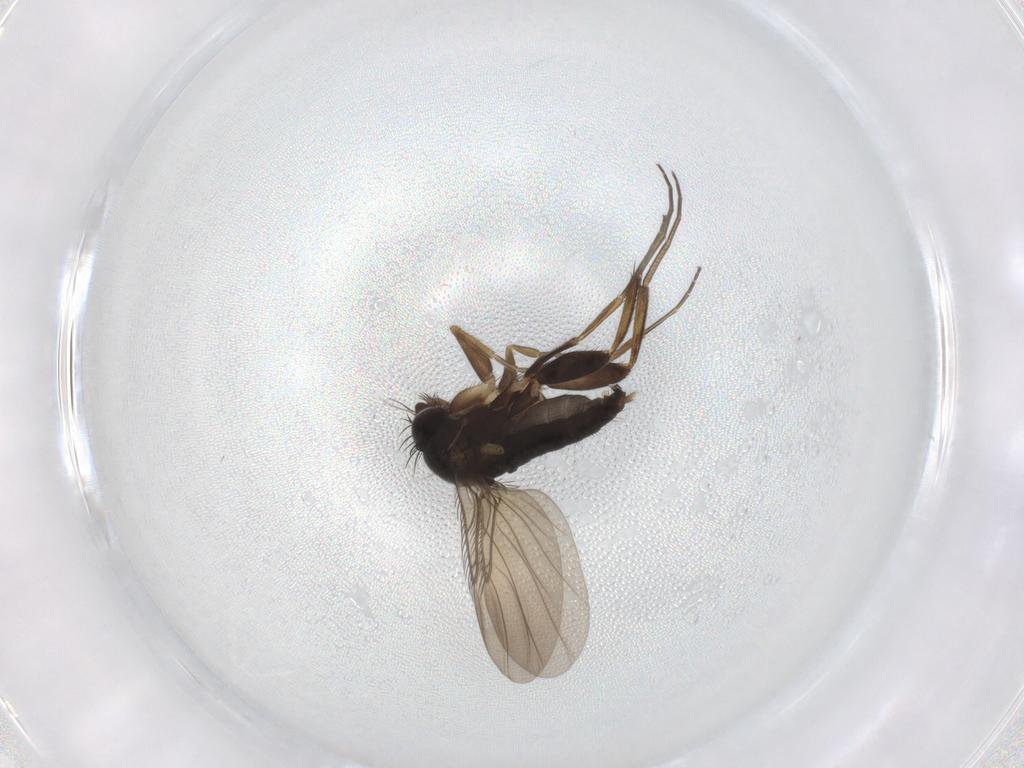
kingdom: Animalia
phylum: Arthropoda
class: Insecta
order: Diptera
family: Phoridae
